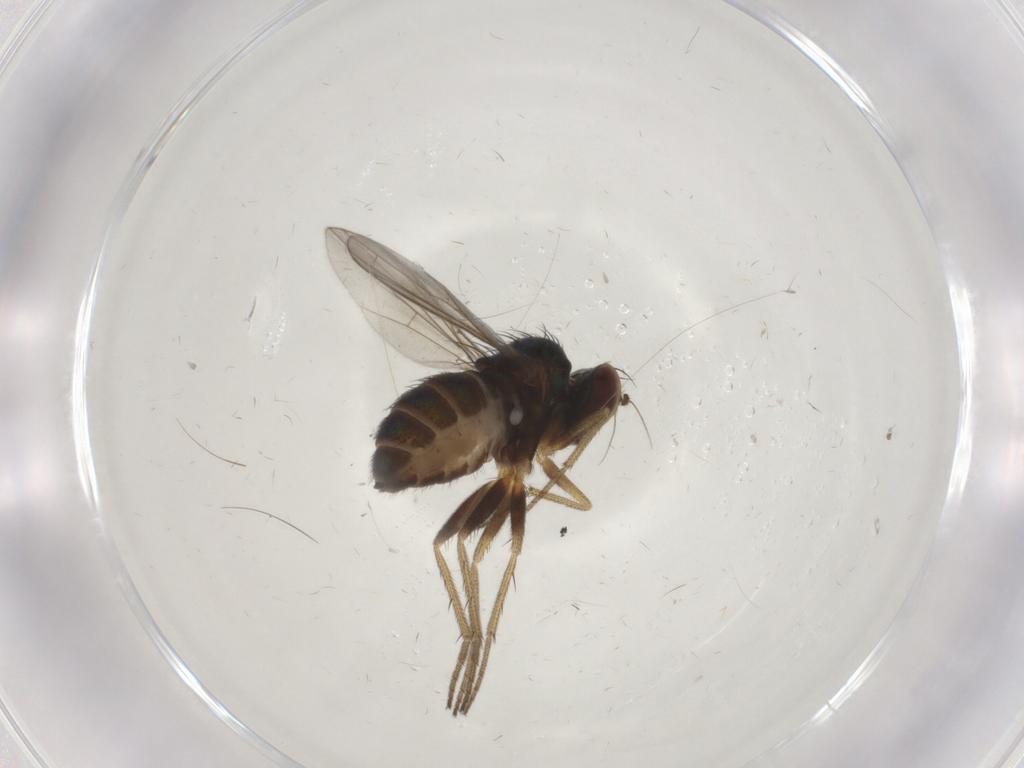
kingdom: Animalia
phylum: Arthropoda
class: Insecta
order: Diptera
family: Dolichopodidae
